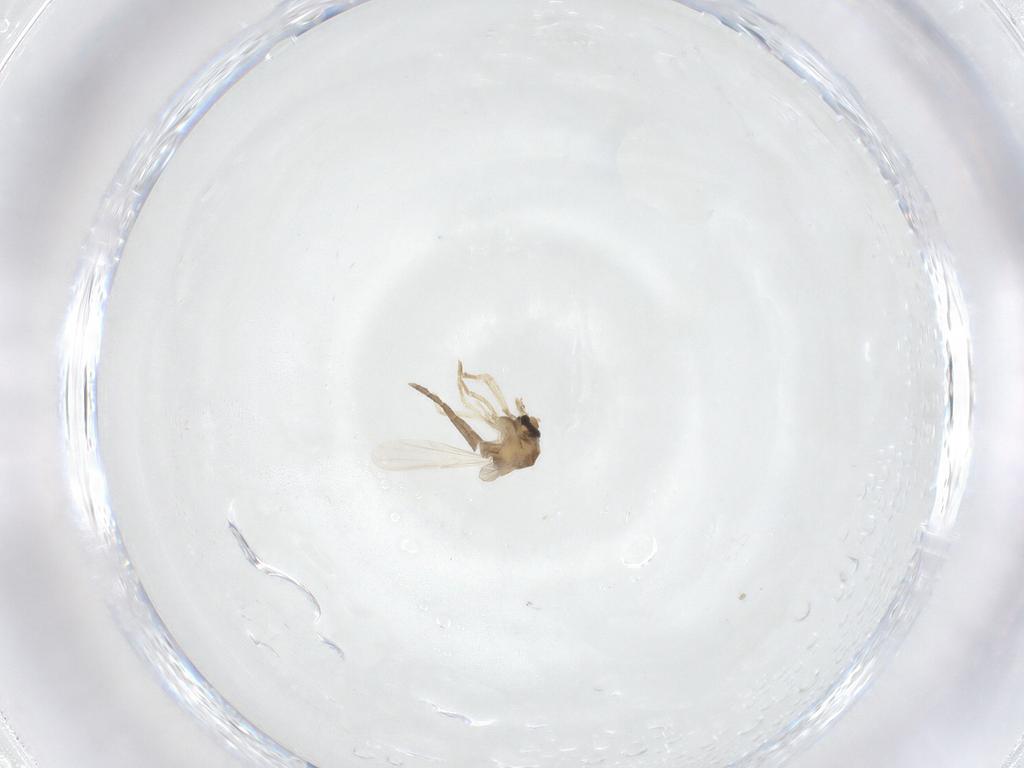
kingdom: Animalia
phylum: Arthropoda
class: Insecta
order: Diptera
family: Ceratopogonidae
